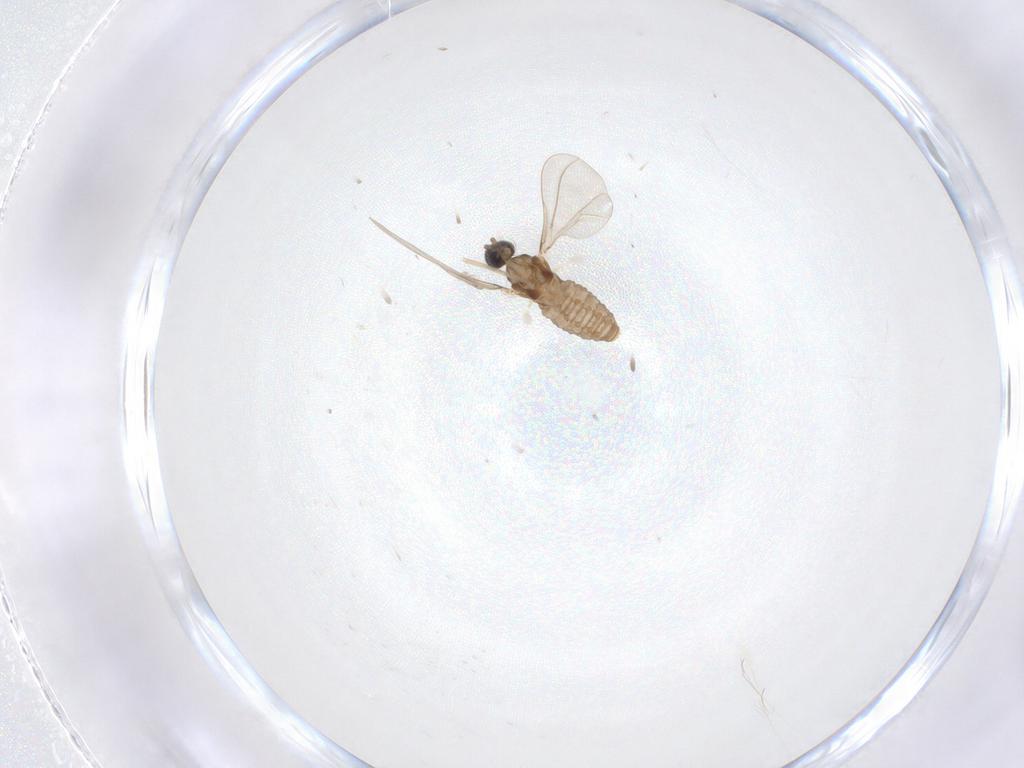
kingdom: Animalia
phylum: Arthropoda
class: Insecta
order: Diptera
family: Cecidomyiidae
